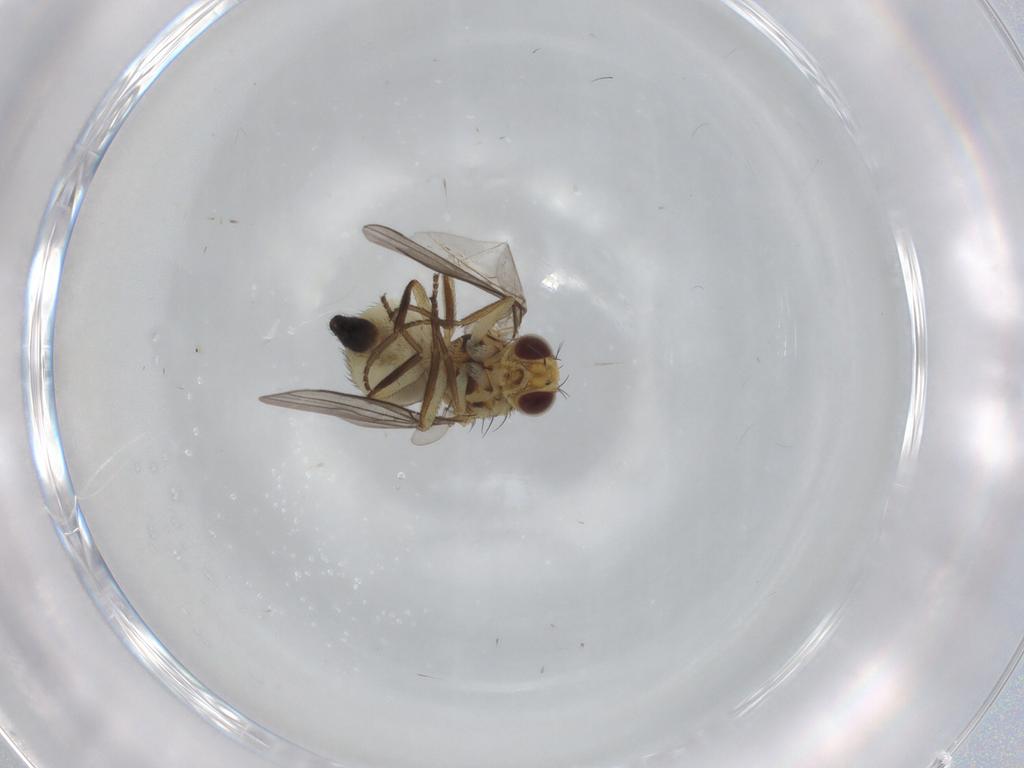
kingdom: Animalia
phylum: Arthropoda
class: Insecta
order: Diptera
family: Agromyzidae
